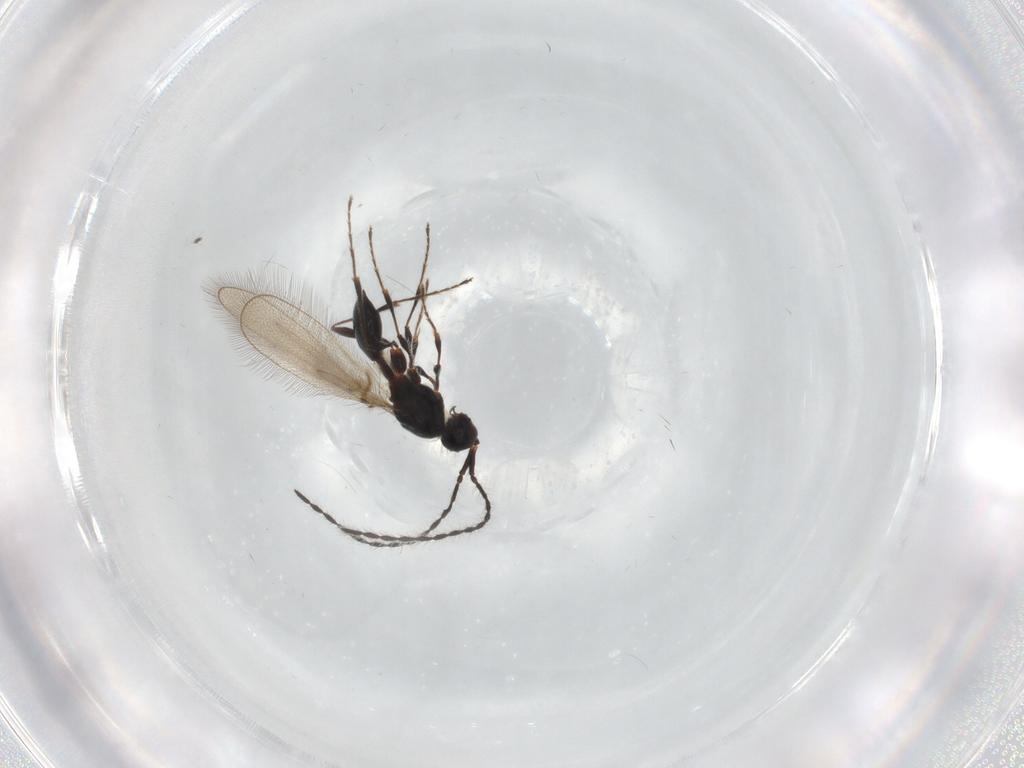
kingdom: Animalia
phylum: Arthropoda
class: Insecta
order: Hymenoptera
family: Diapriidae
